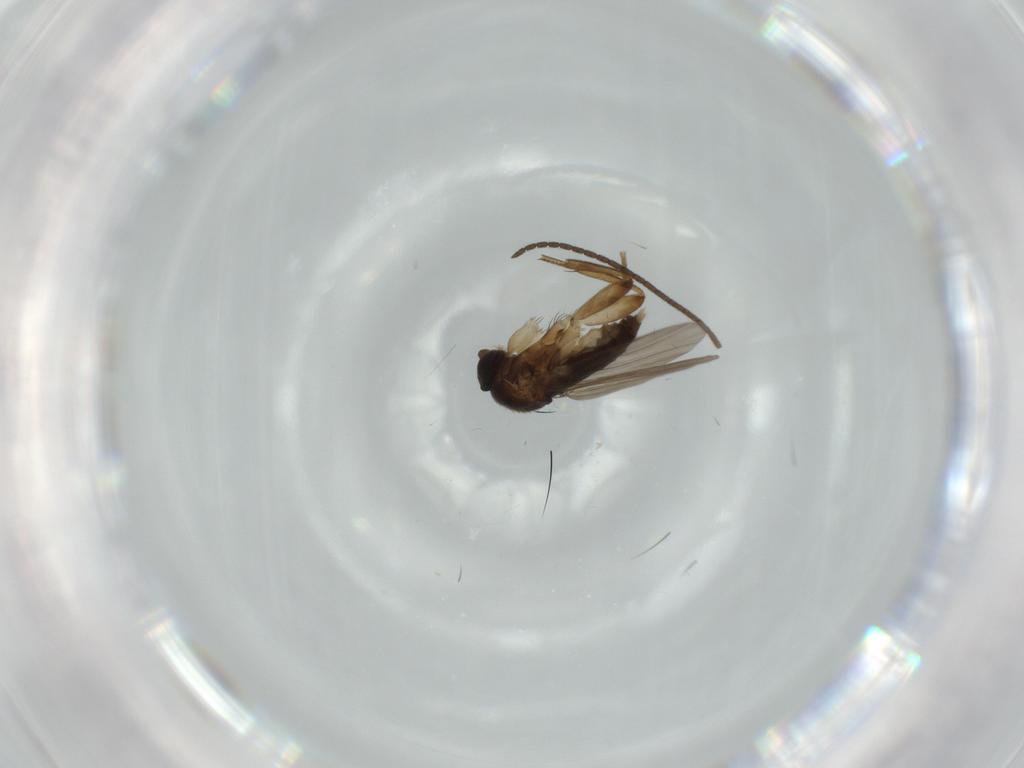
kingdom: Animalia
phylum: Arthropoda
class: Insecta
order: Diptera
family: Phoridae
